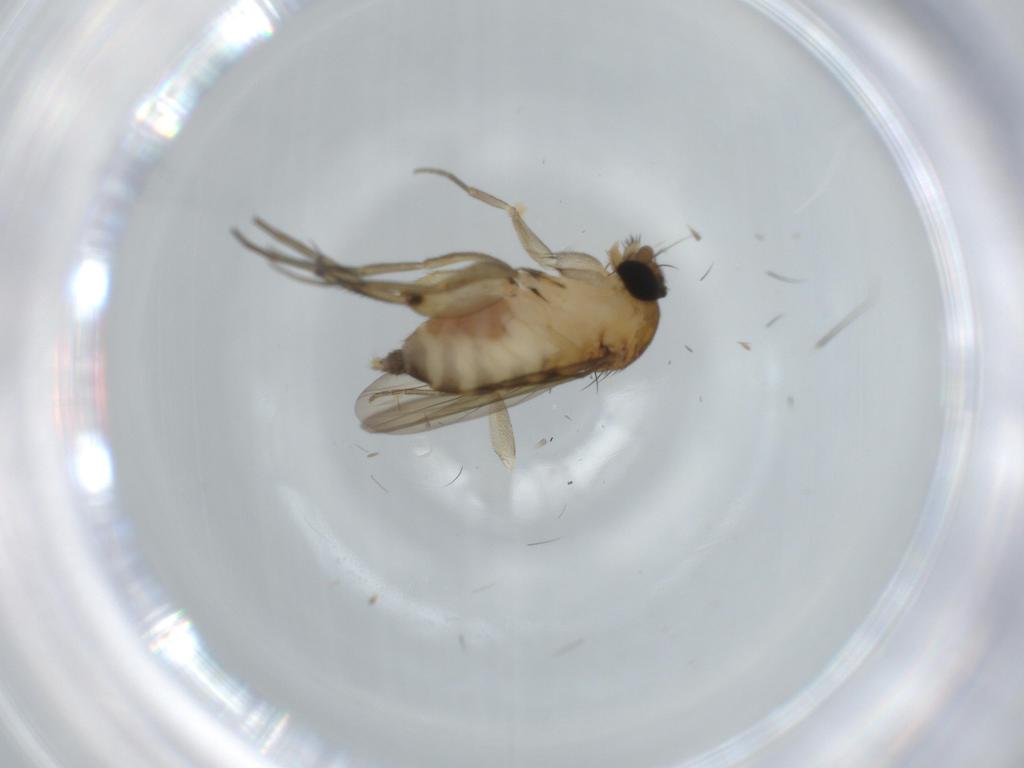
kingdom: Animalia
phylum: Arthropoda
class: Insecta
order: Diptera
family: Phoridae
